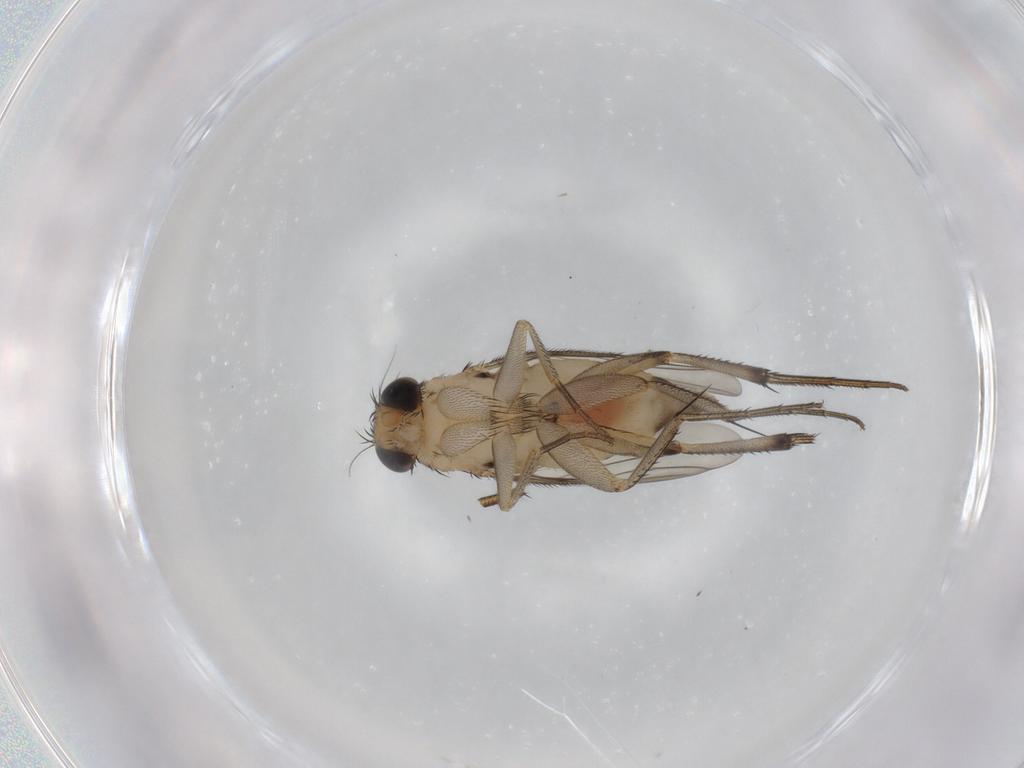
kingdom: Animalia
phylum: Arthropoda
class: Insecta
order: Diptera
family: Phoridae
